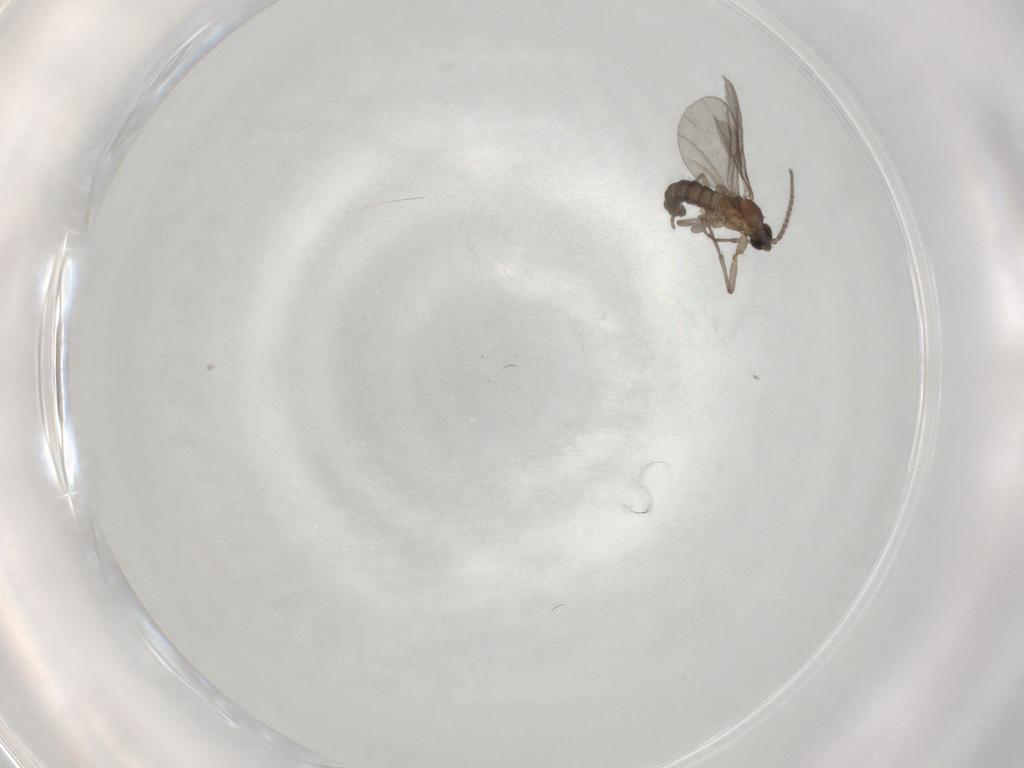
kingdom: Animalia
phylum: Arthropoda
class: Insecta
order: Diptera
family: Sciaridae
